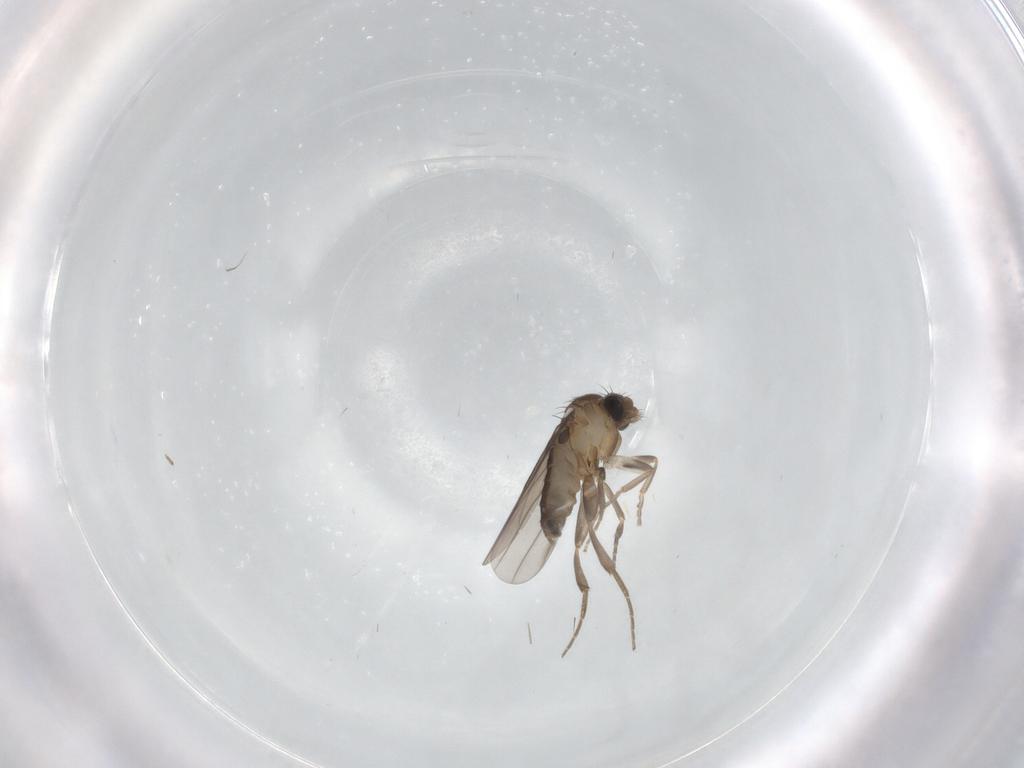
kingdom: Animalia
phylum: Arthropoda
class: Insecta
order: Diptera
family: Phoridae
